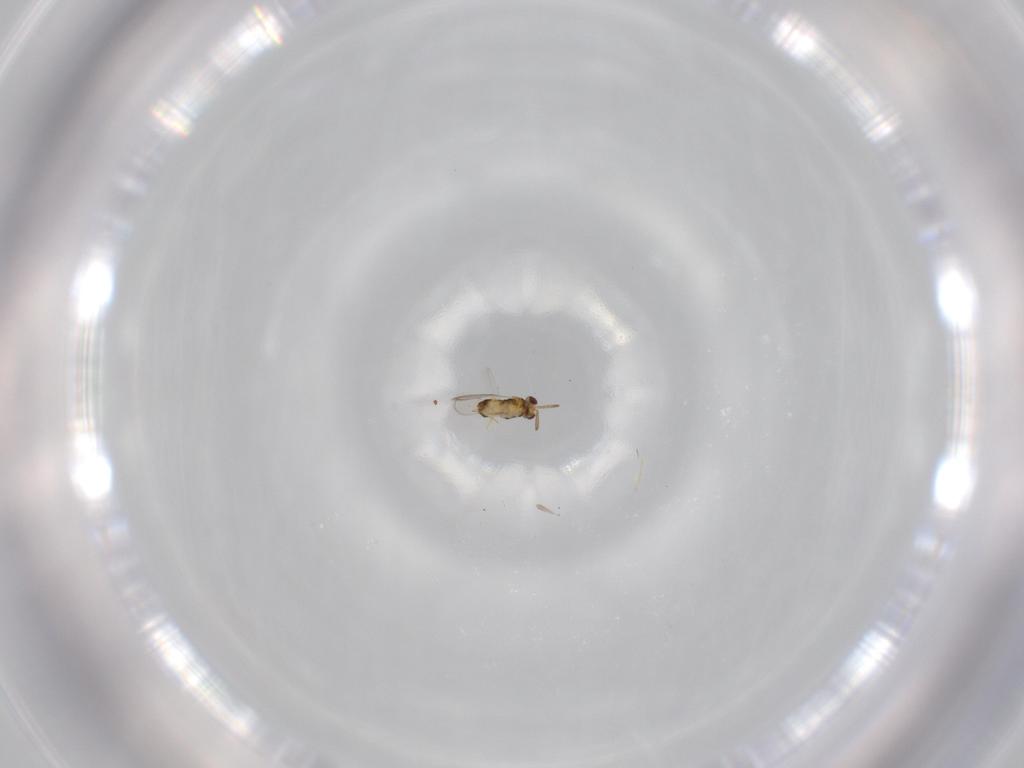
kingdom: Animalia
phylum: Arthropoda
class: Insecta
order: Hymenoptera
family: Aphelinidae
